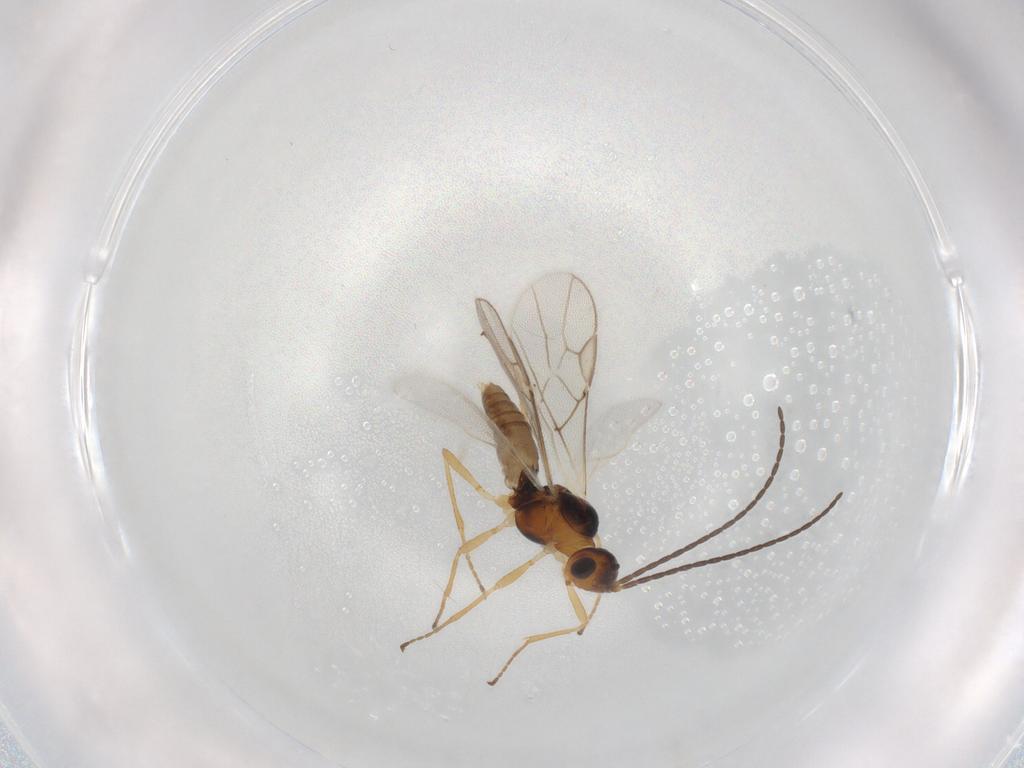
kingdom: Animalia
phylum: Arthropoda
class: Insecta
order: Hymenoptera
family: Braconidae
